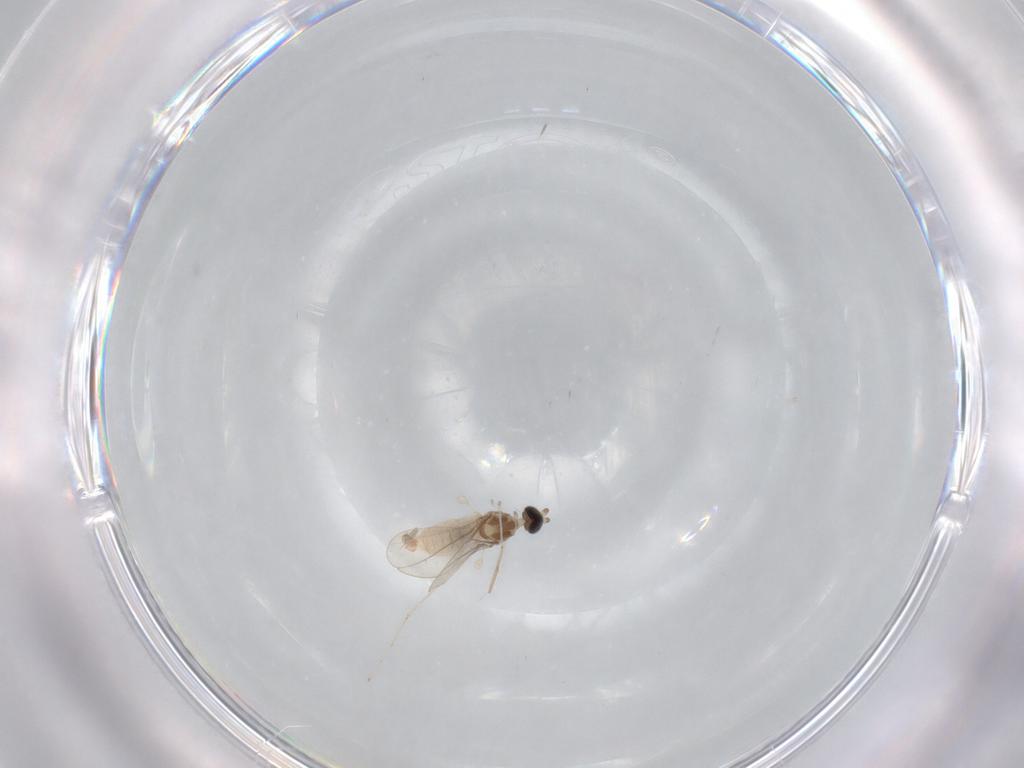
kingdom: Animalia
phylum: Arthropoda
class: Insecta
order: Diptera
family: Cecidomyiidae
